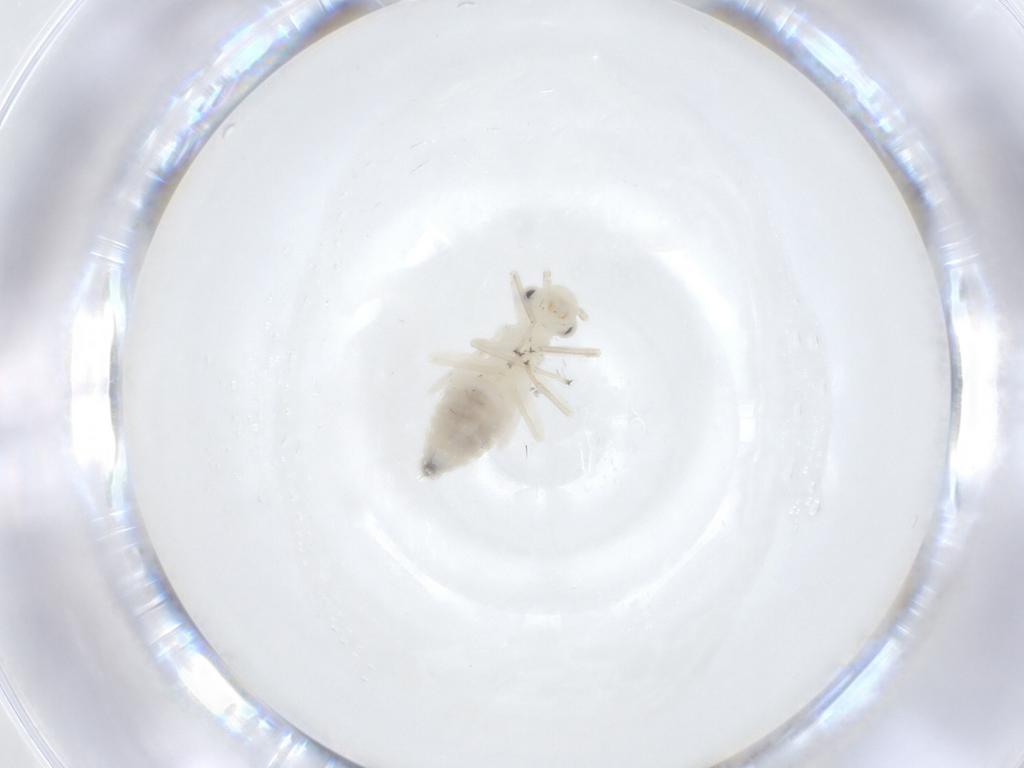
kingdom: Animalia
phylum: Arthropoda
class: Insecta
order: Psocodea
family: Caeciliusidae
